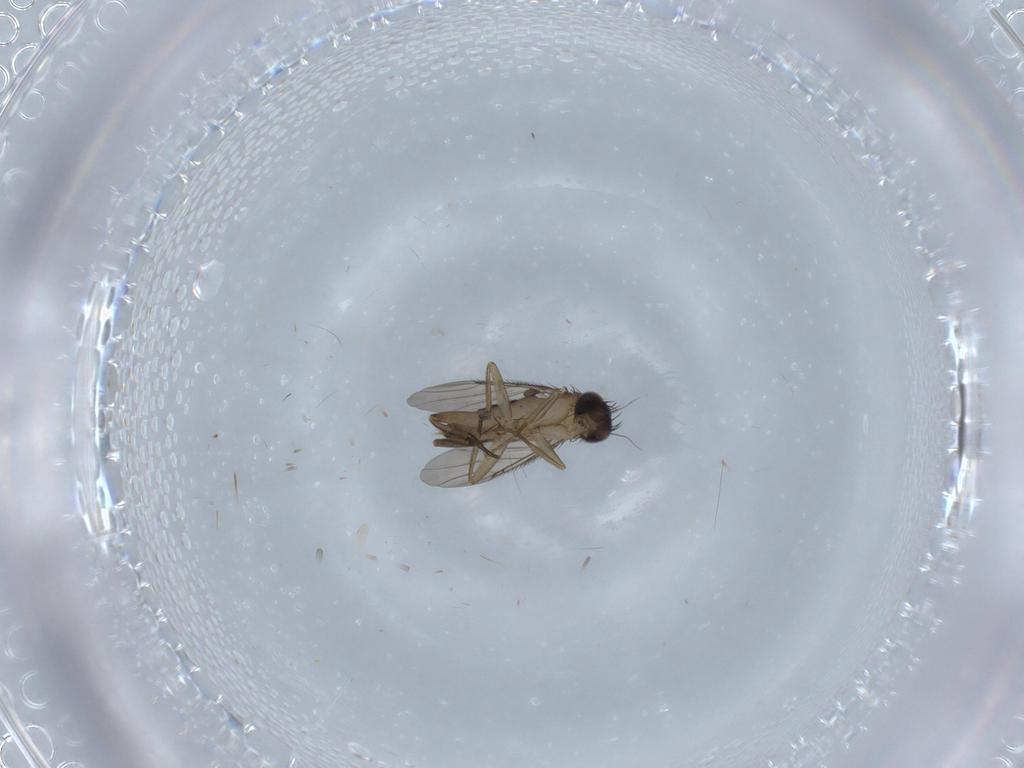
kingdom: Animalia
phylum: Arthropoda
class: Insecta
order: Diptera
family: Phoridae
